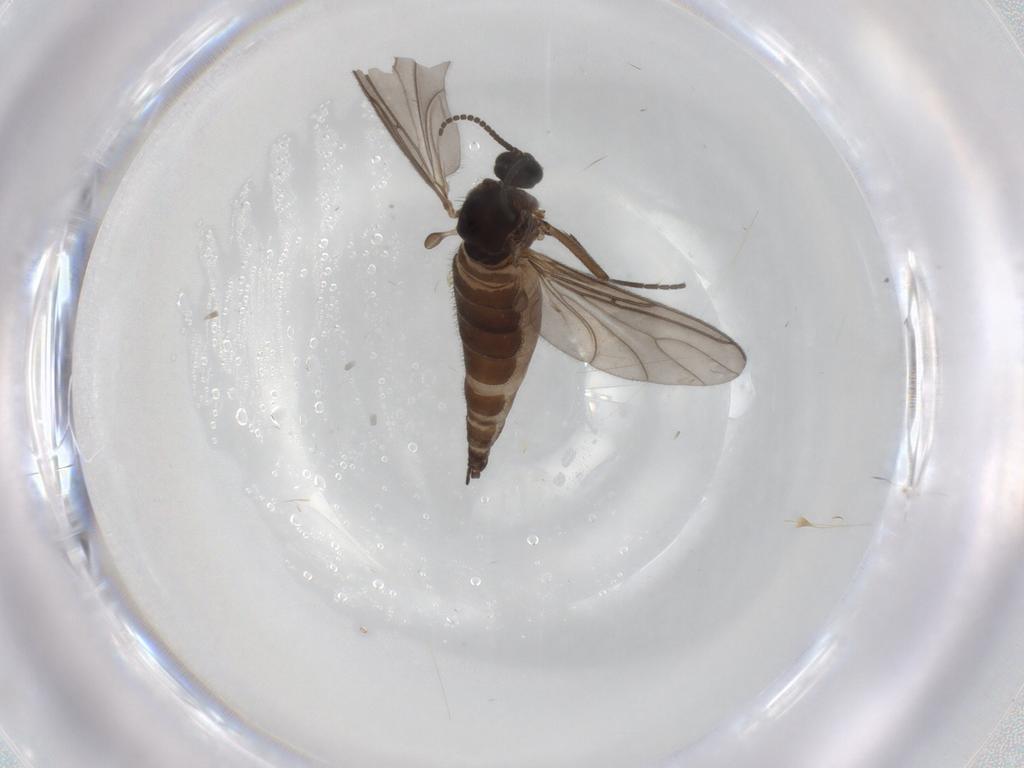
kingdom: Animalia
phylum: Arthropoda
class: Insecta
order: Diptera
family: Sciaridae
